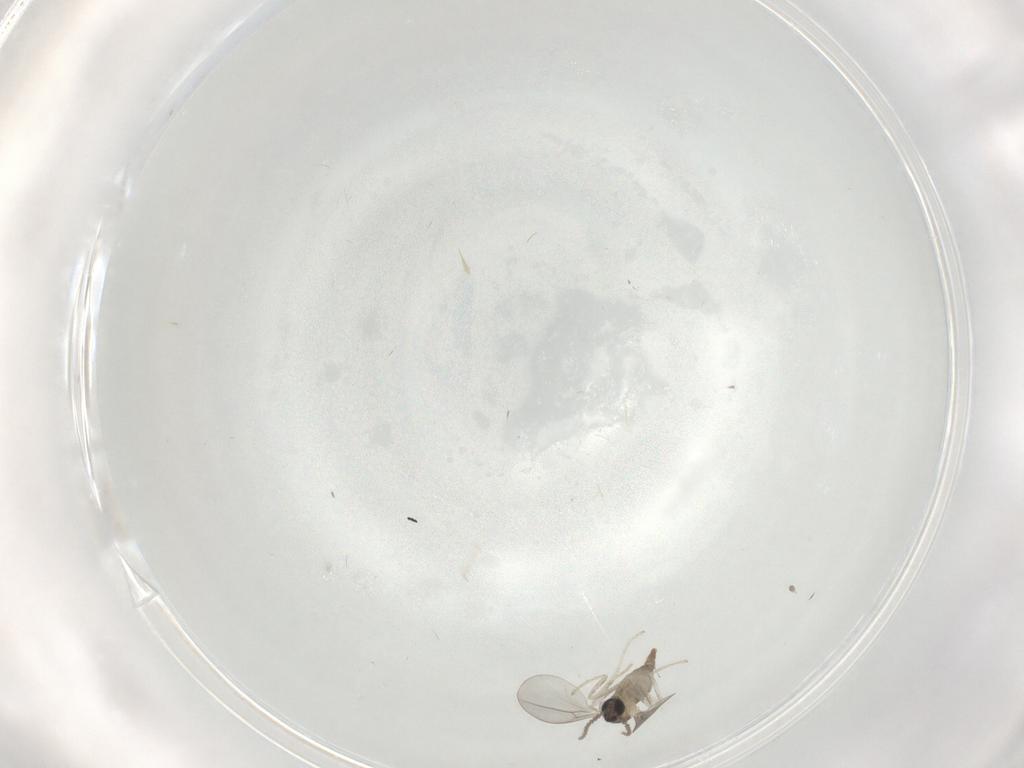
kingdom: Animalia
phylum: Arthropoda
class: Insecta
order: Diptera
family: Cecidomyiidae
